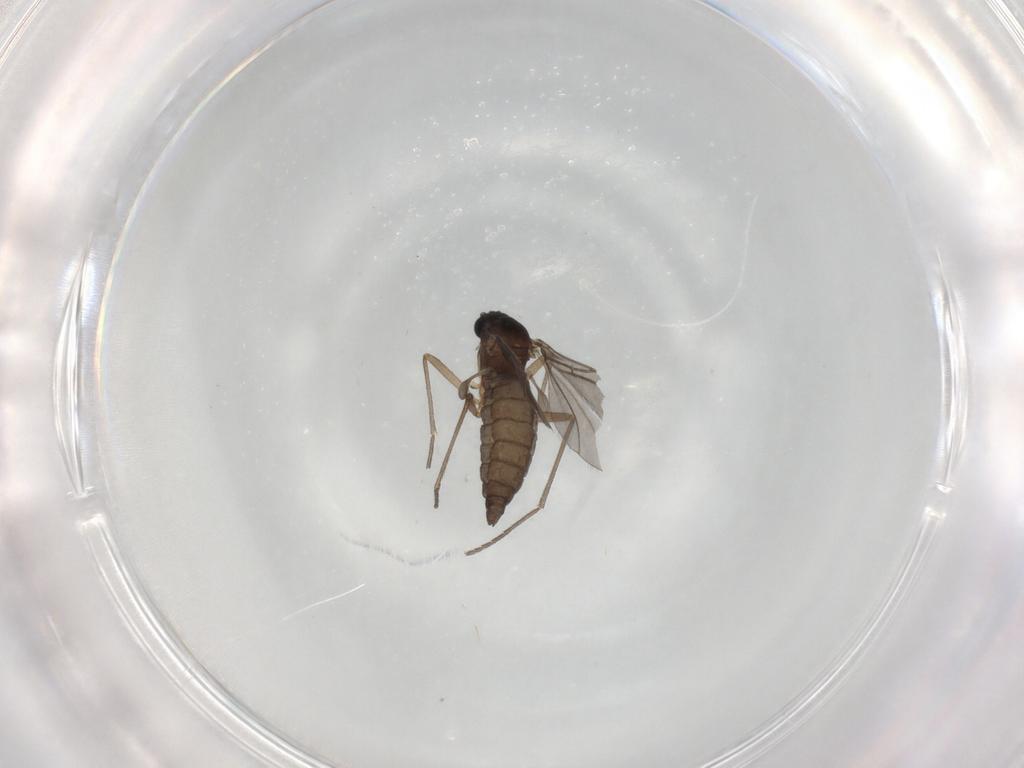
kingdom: Animalia
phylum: Arthropoda
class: Insecta
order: Diptera
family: Sciaridae
